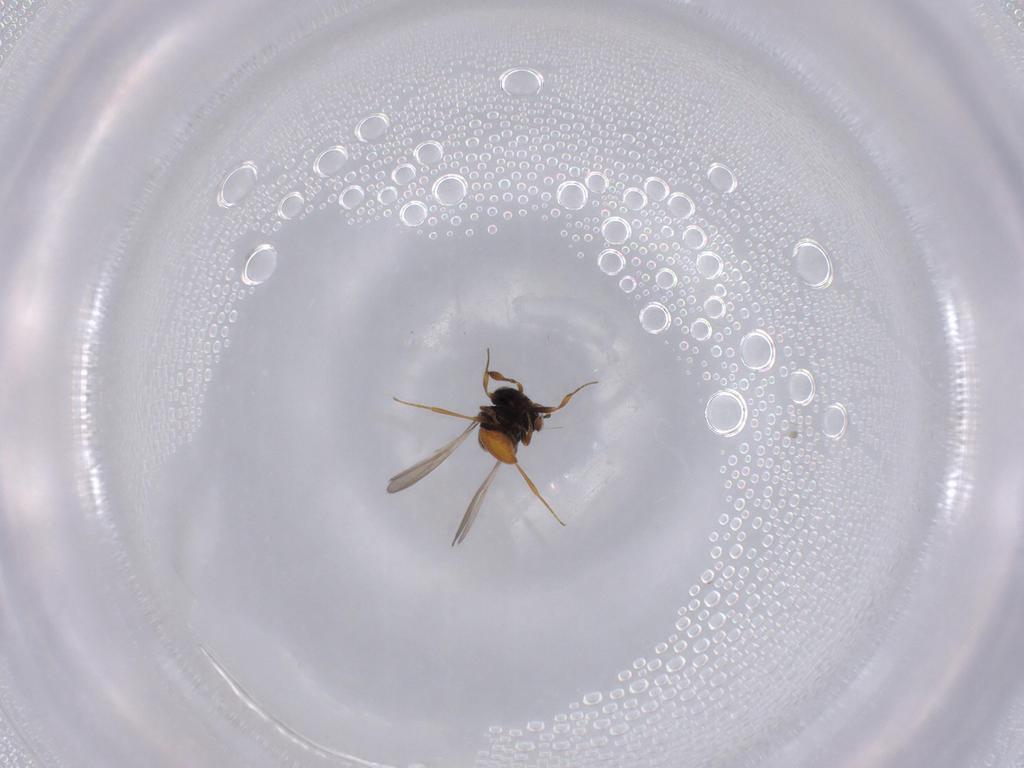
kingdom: Animalia
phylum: Arthropoda
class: Insecta
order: Hymenoptera
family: Scelionidae
